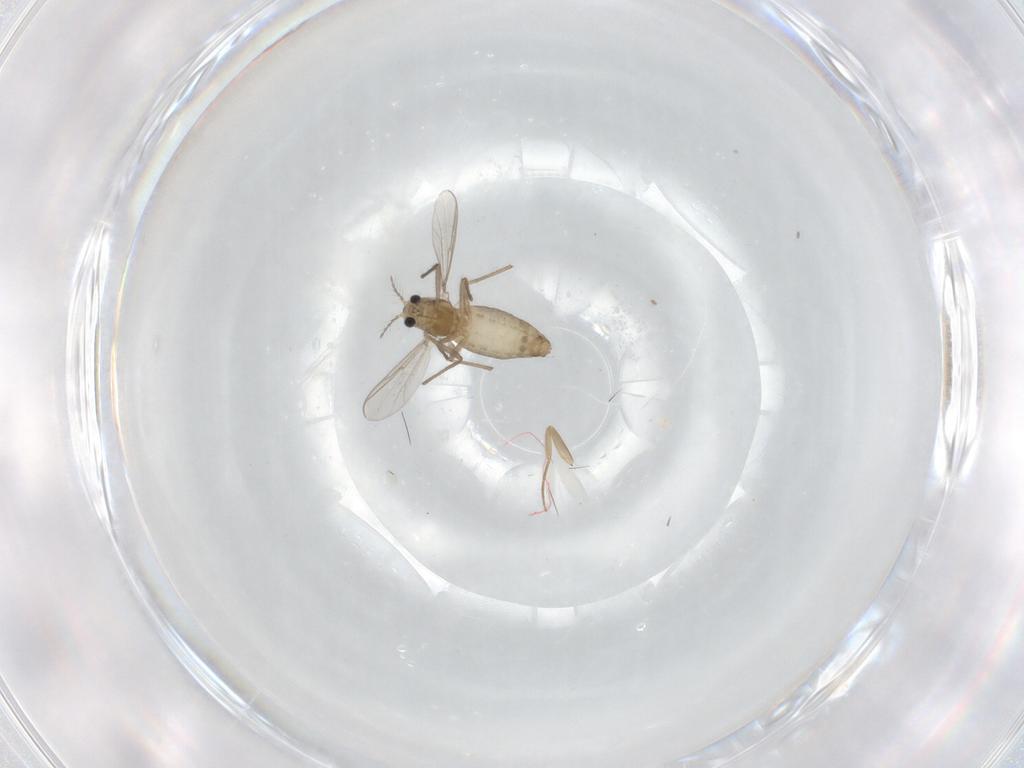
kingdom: Animalia
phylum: Arthropoda
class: Insecta
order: Diptera
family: Chironomidae
